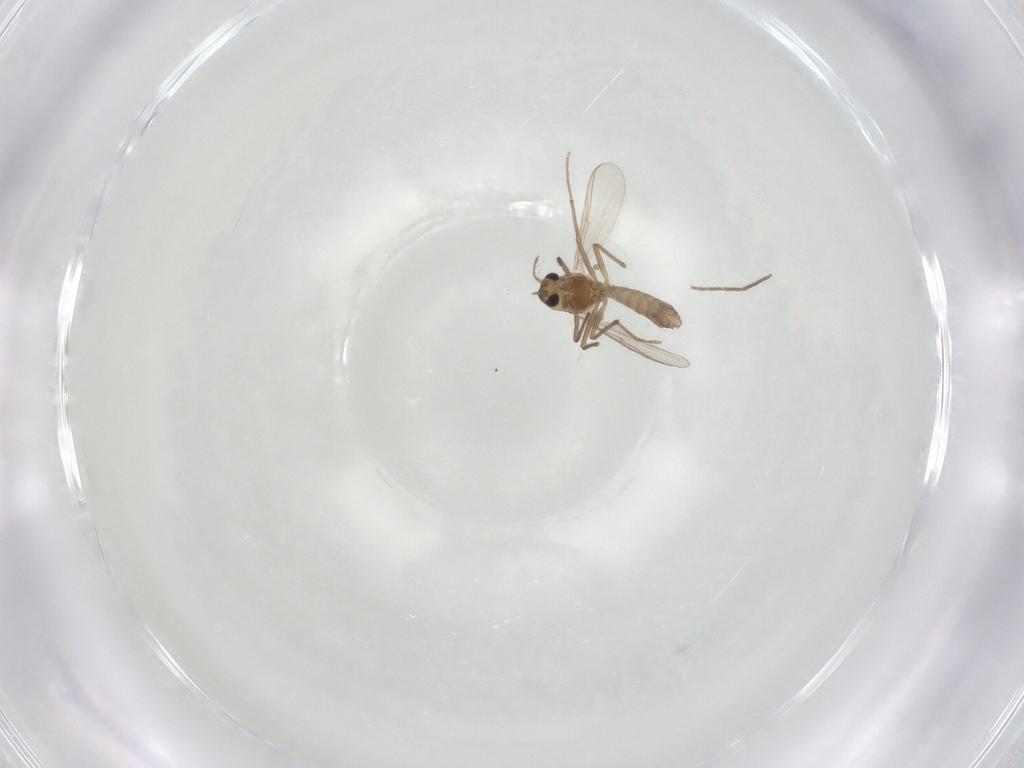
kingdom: Animalia
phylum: Arthropoda
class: Insecta
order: Diptera
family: Chironomidae
